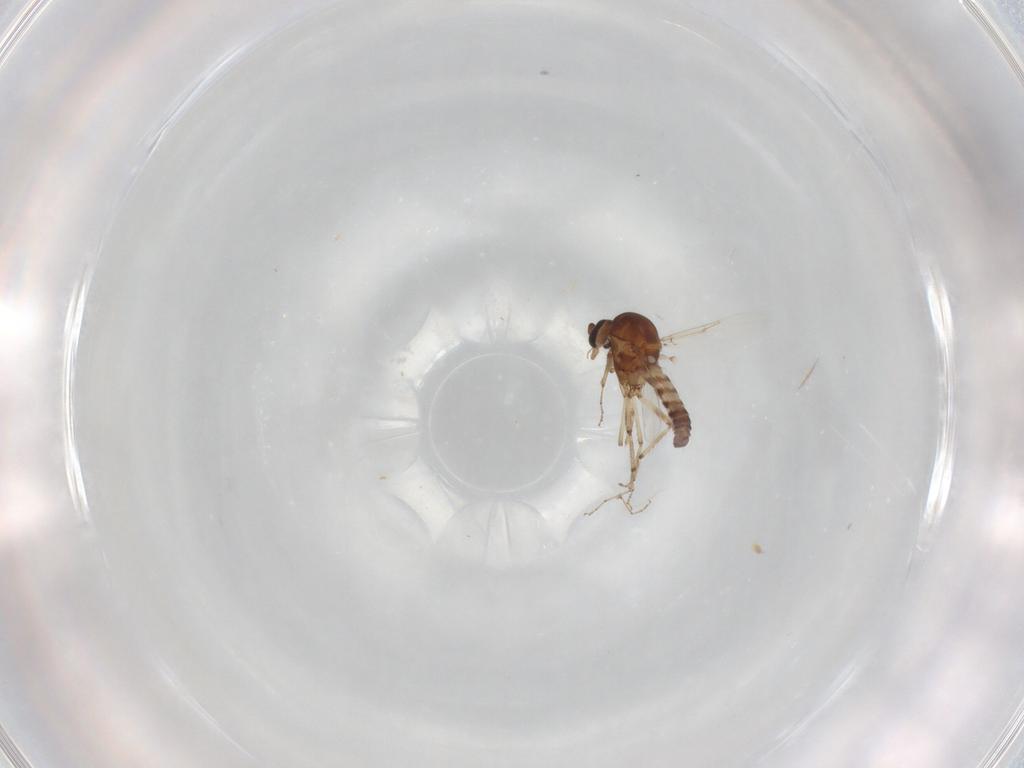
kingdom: Animalia
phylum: Arthropoda
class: Insecta
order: Diptera
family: Ceratopogonidae
